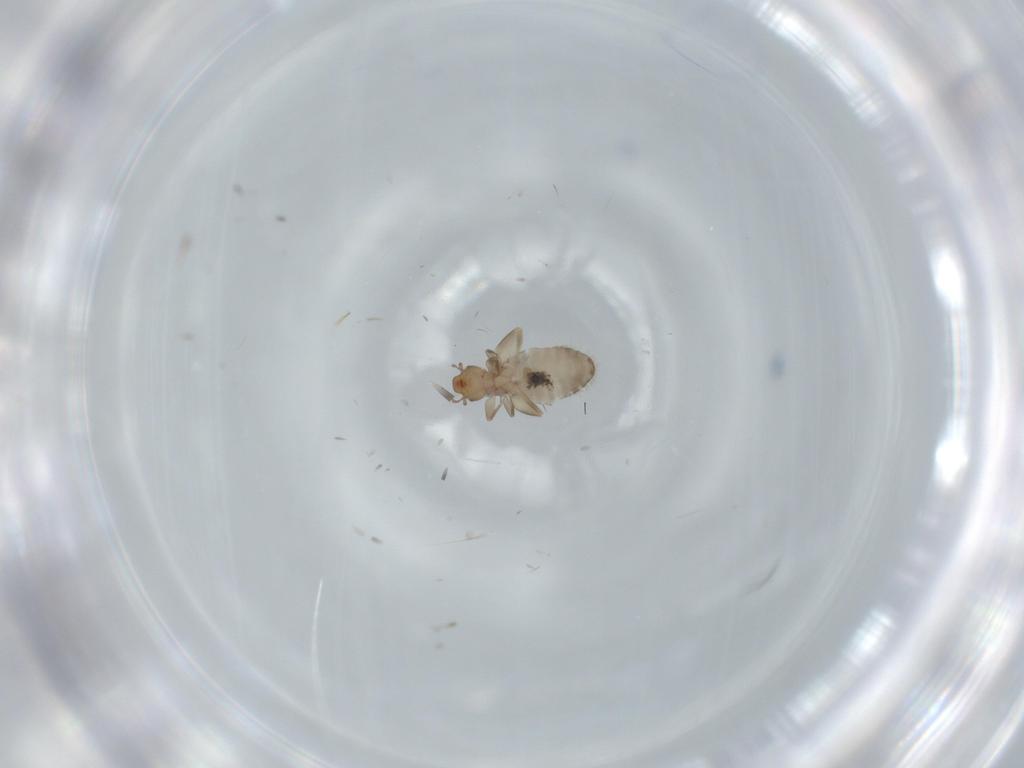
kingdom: Animalia
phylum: Arthropoda
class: Insecta
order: Psocodea
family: Liposcelididae
